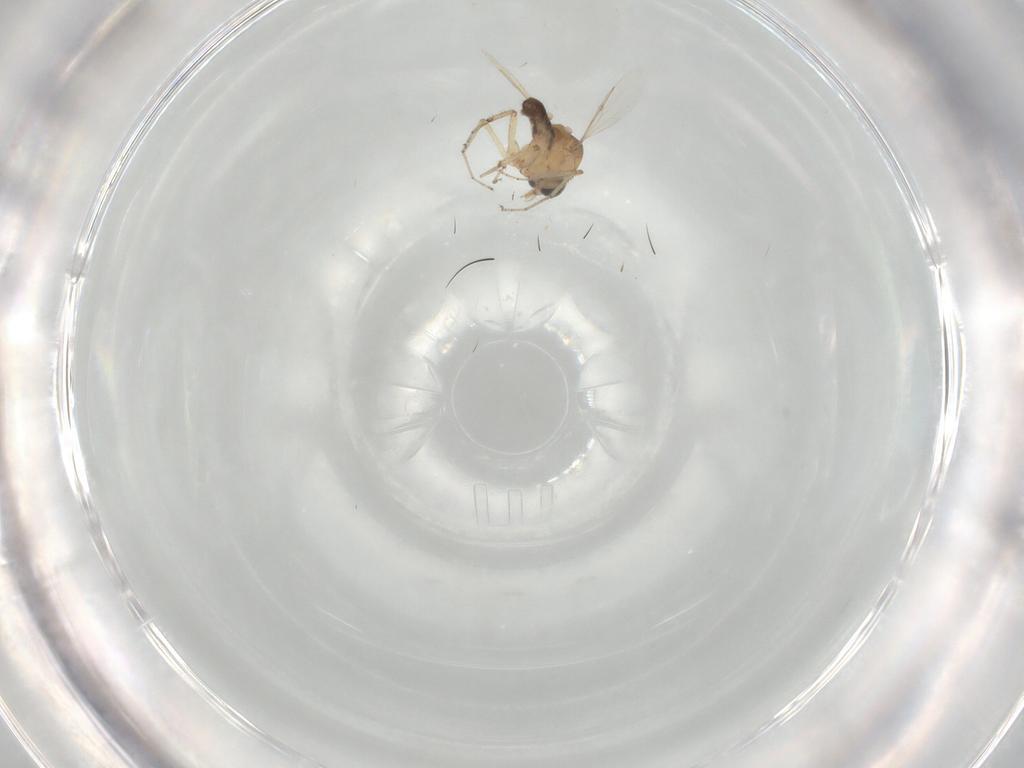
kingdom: Animalia
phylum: Arthropoda
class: Insecta
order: Diptera
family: Ceratopogonidae
